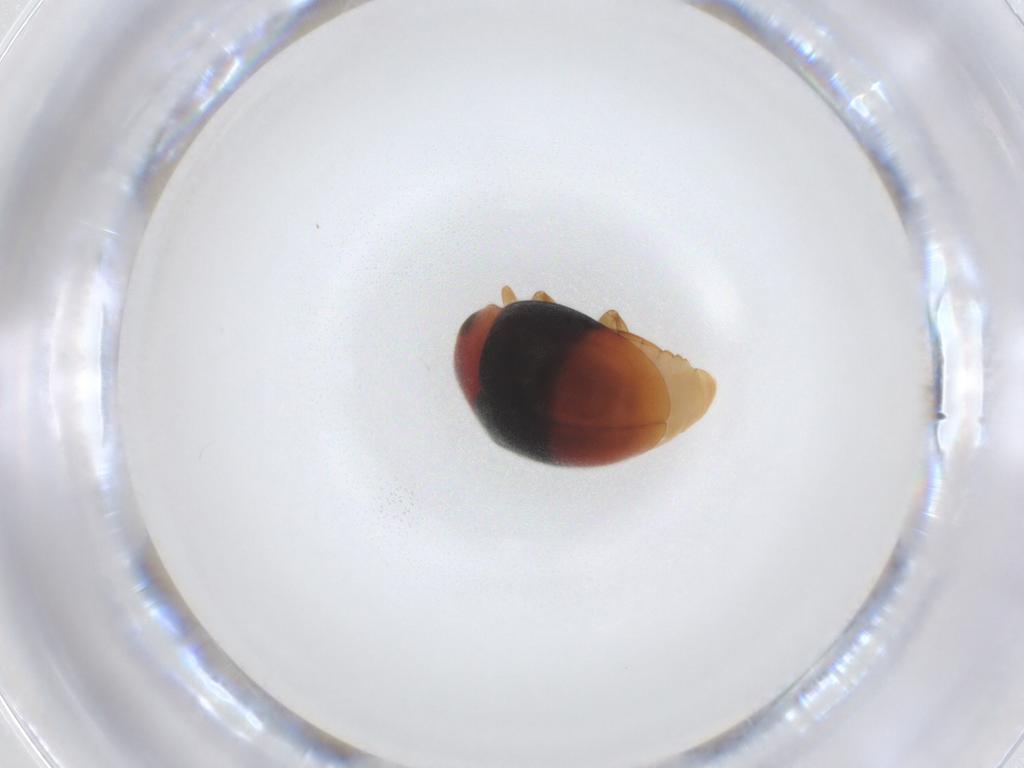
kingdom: Animalia
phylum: Arthropoda
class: Insecta
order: Coleoptera
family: Coccinellidae
